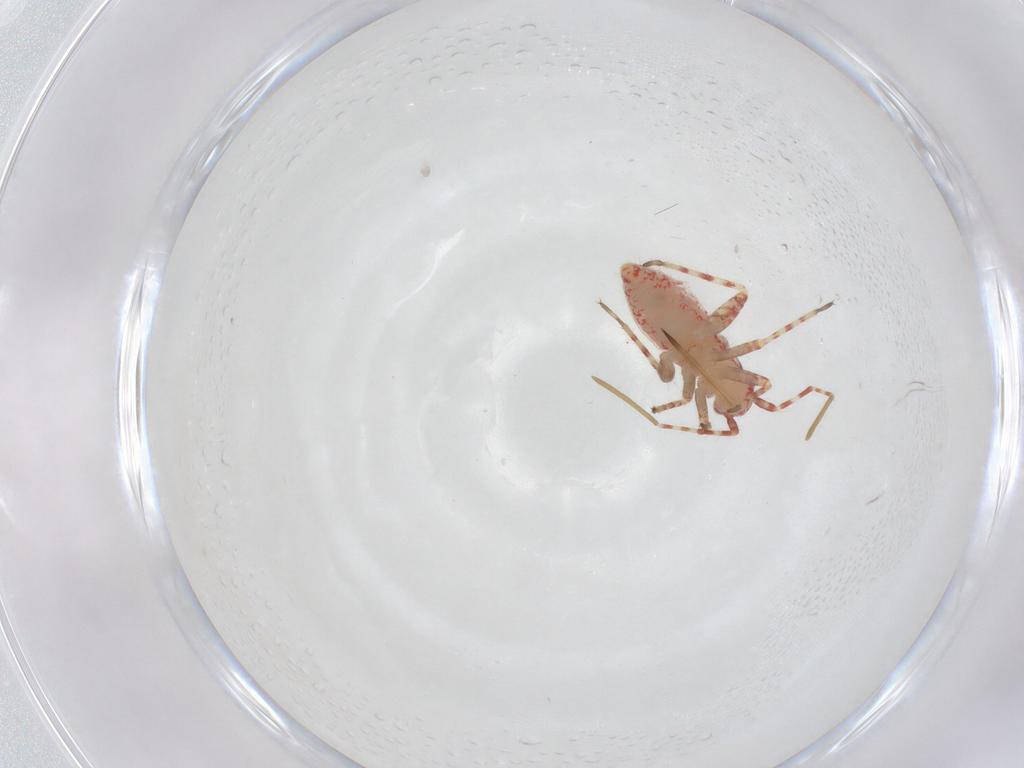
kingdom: Animalia
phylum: Arthropoda
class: Insecta
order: Hemiptera
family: Miridae
